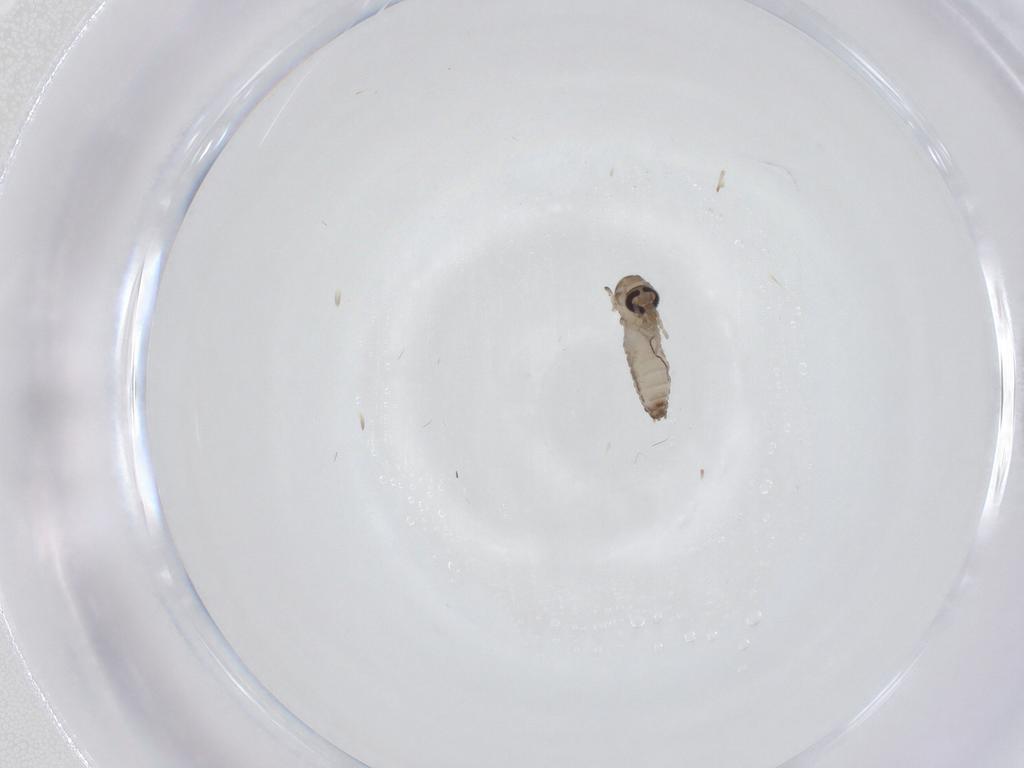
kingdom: Animalia
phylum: Arthropoda
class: Insecta
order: Diptera
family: Psychodidae
